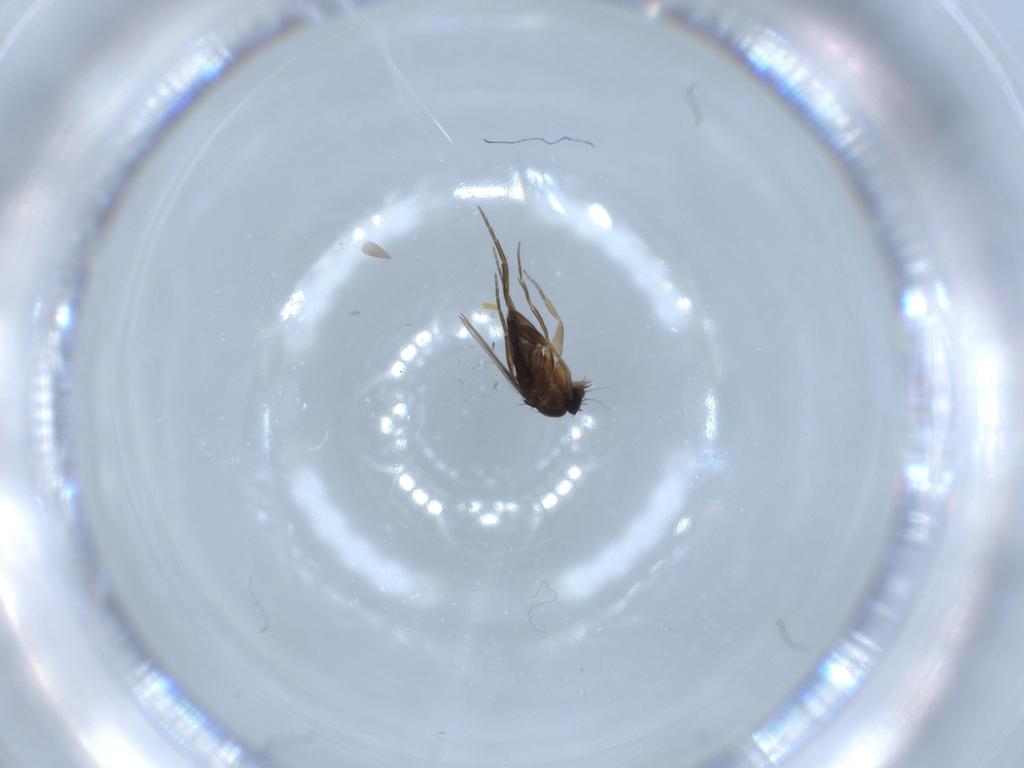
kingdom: Animalia
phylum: Arthropoda
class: Insecta
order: Diptera
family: Phoridae
